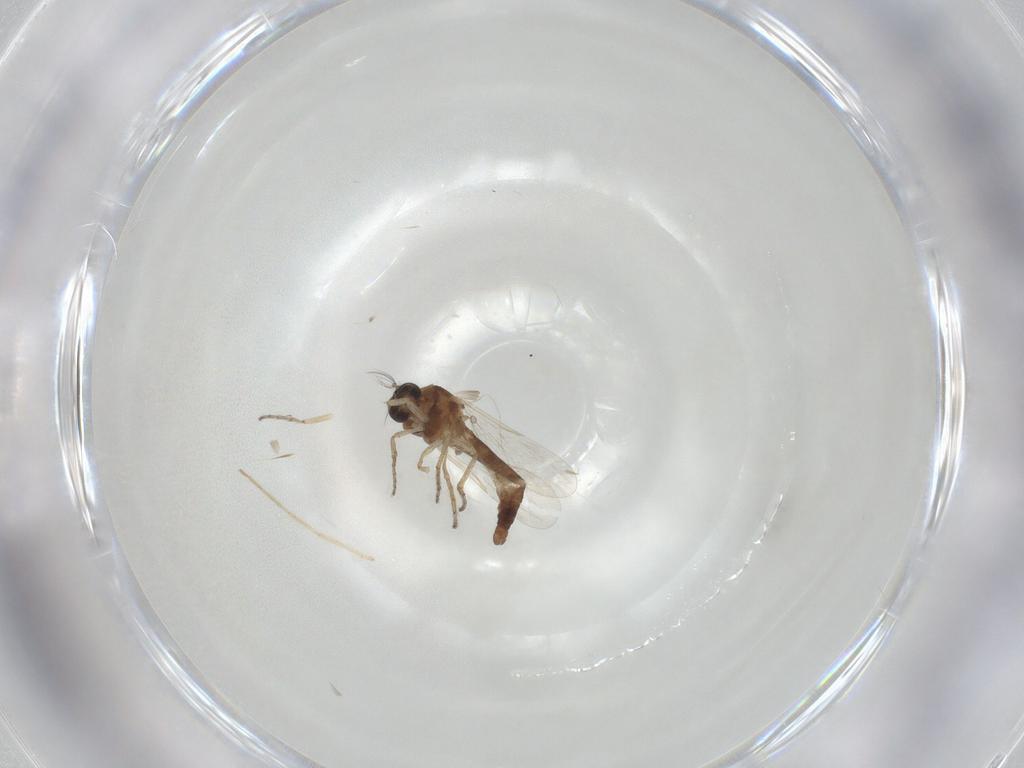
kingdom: Animalia
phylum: Arthropoda
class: Insecta
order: Diptera
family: Ceratopogonidae
